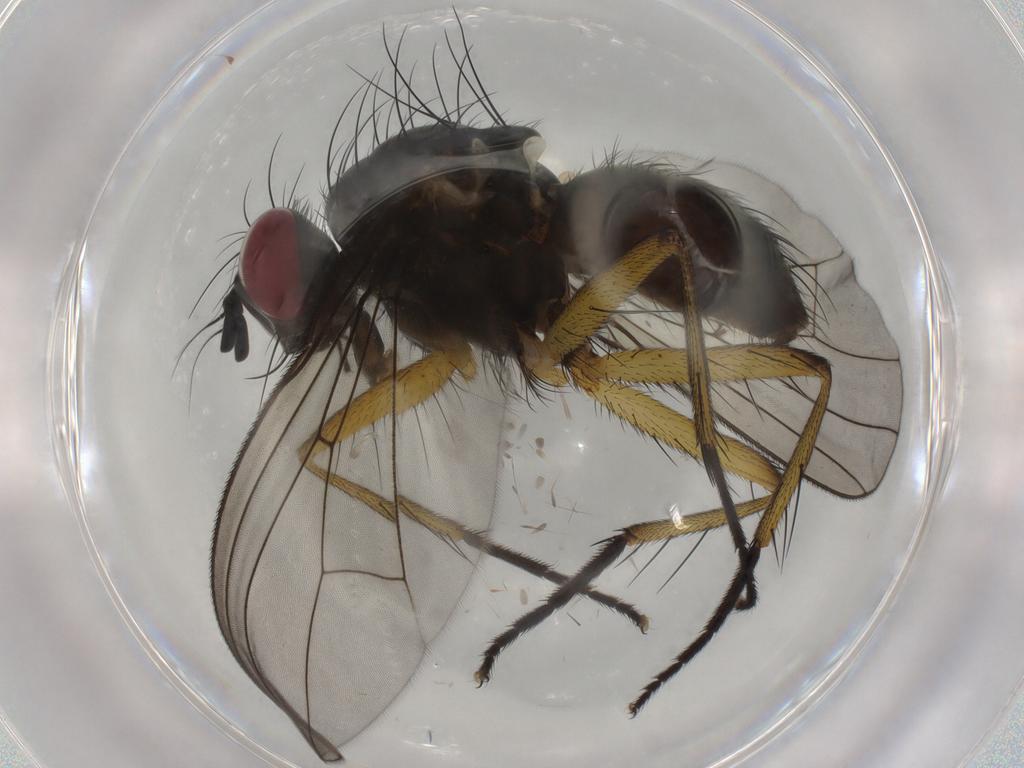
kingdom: Animalia
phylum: Arthropoda
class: Insecta
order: Diptera
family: Muscidae
